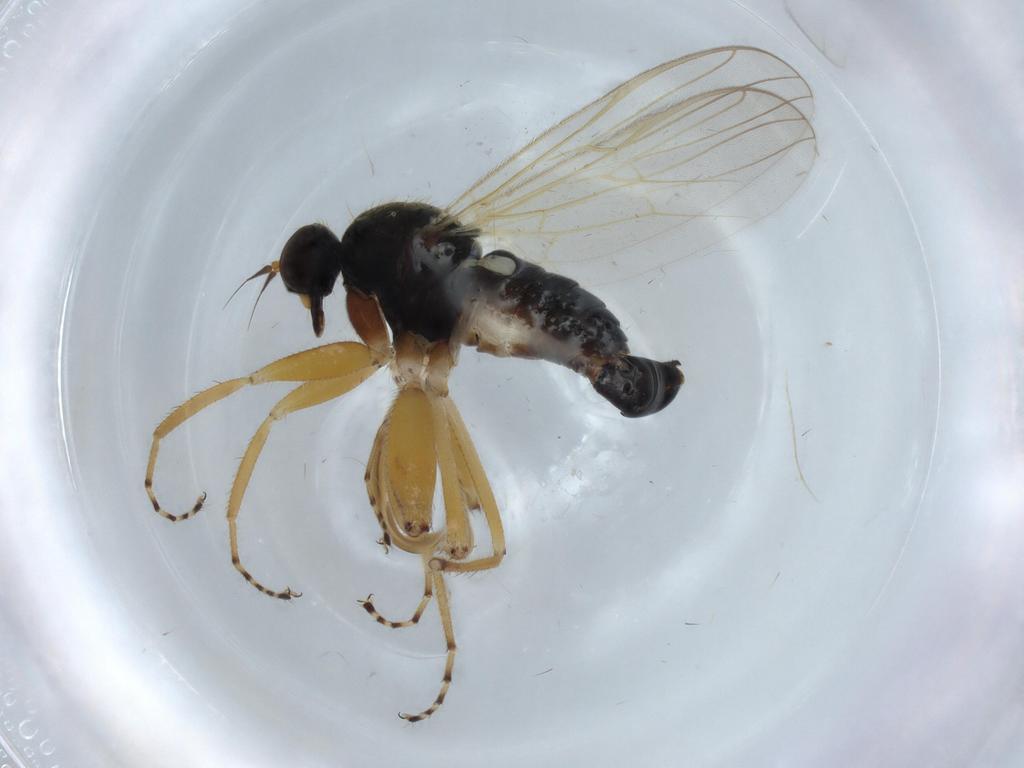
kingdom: Animalia
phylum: Arthropoda
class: Insecta
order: Diptera
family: Hybotidae
